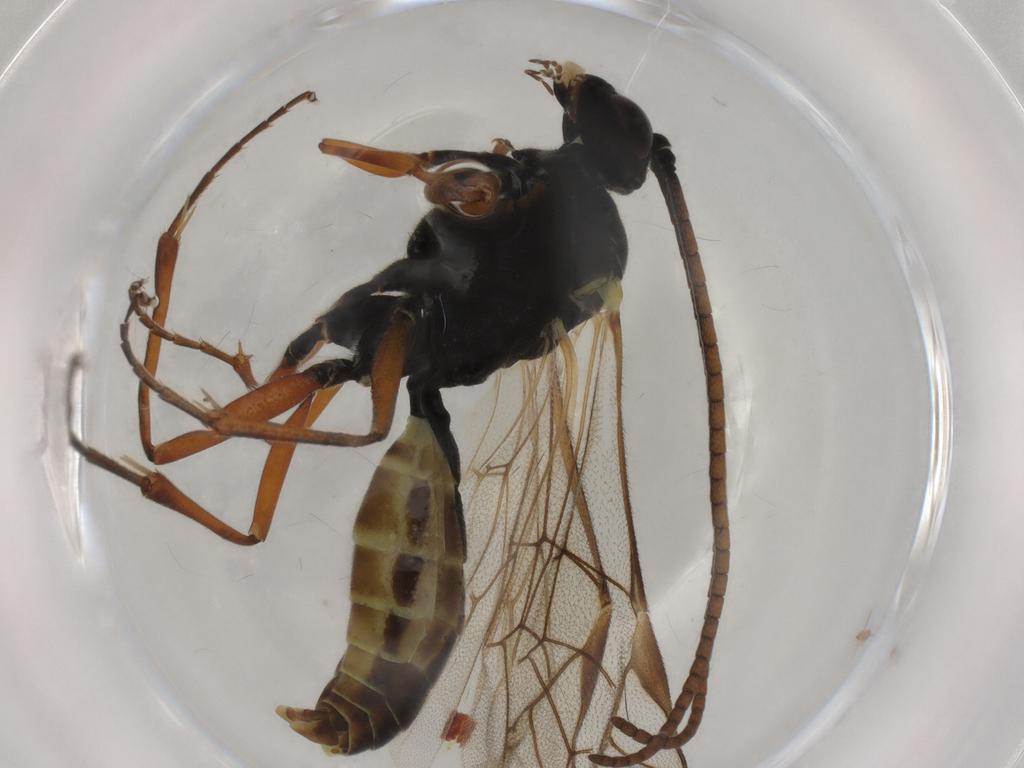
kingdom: Animalia
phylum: Arthropoda
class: Insecta
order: Hymenoptera
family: Ichneumonidae
